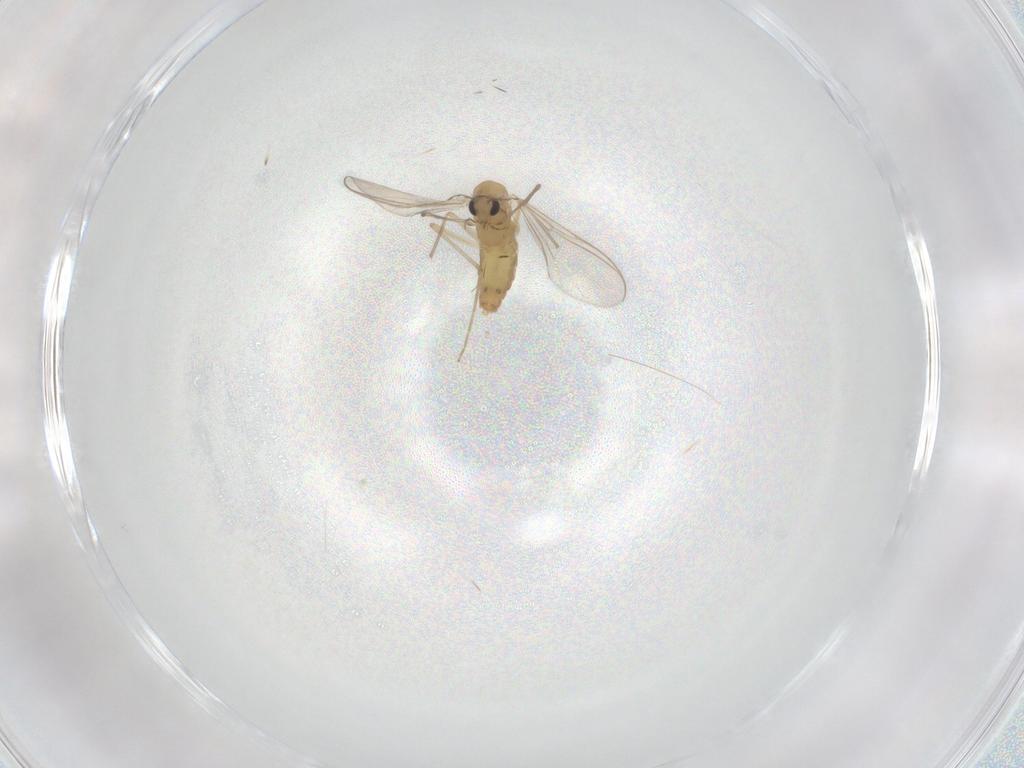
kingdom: Animalia
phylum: Arthropoda
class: Insecta
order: Diptera
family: Chironomidae
